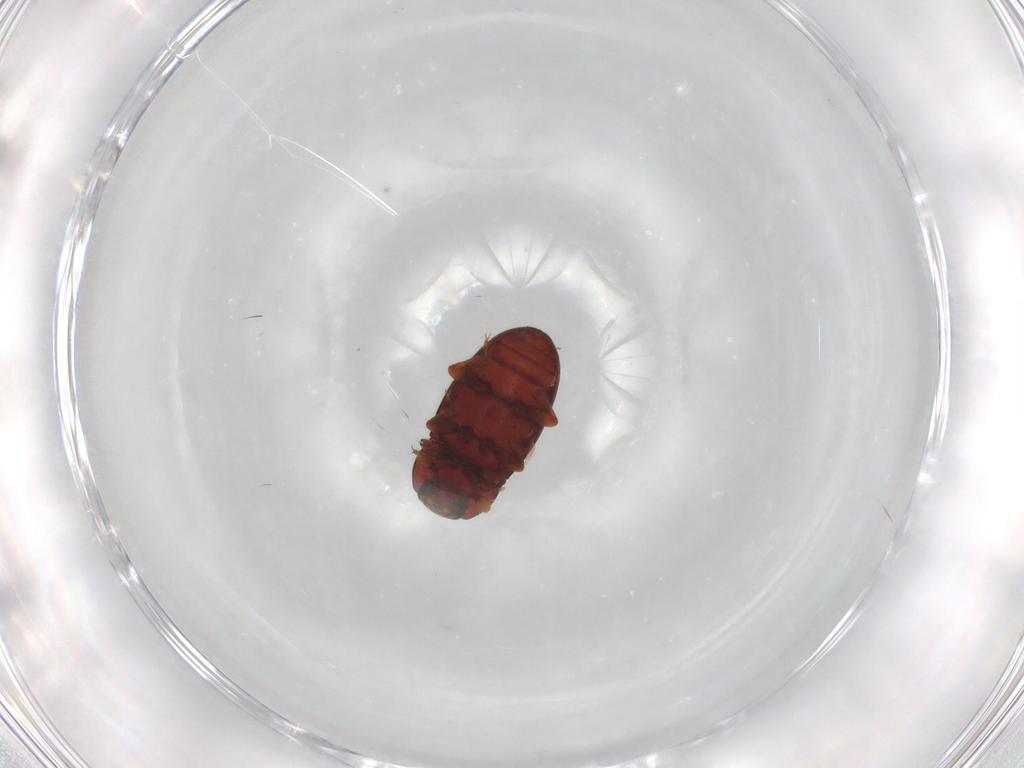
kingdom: Animalia
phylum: Arthropoda
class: Insecta
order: Coleoptera
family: Cerylonidae
